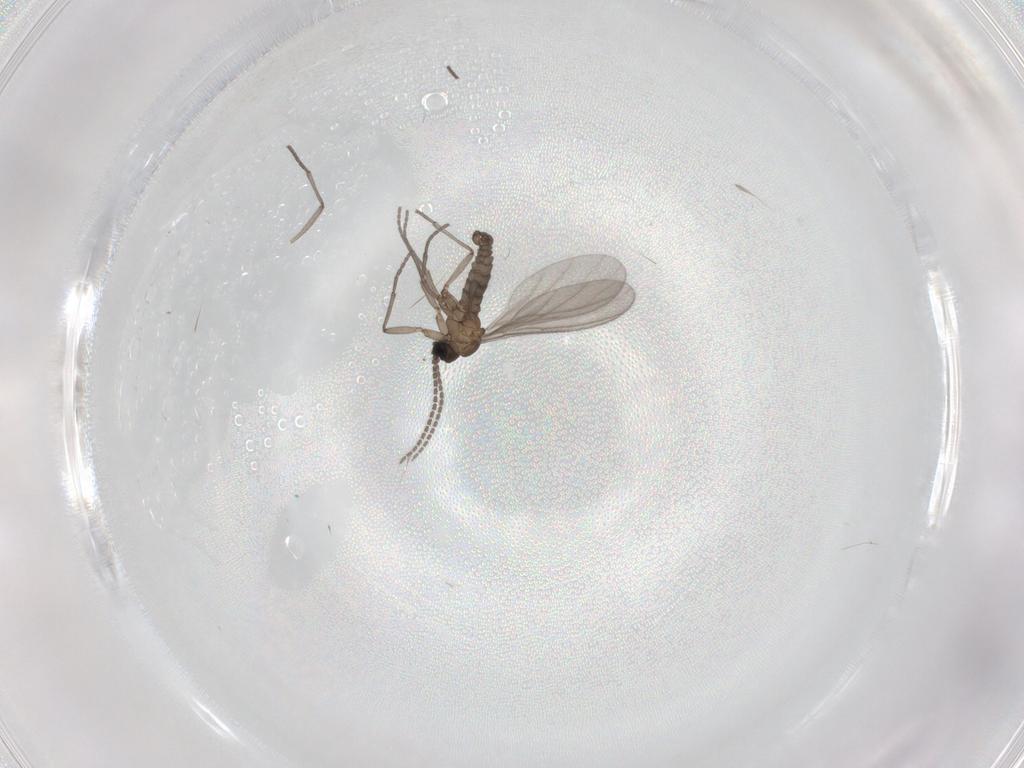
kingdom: Animalia
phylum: Arthropoda
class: Insecta
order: Diptera
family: Sciaridae
